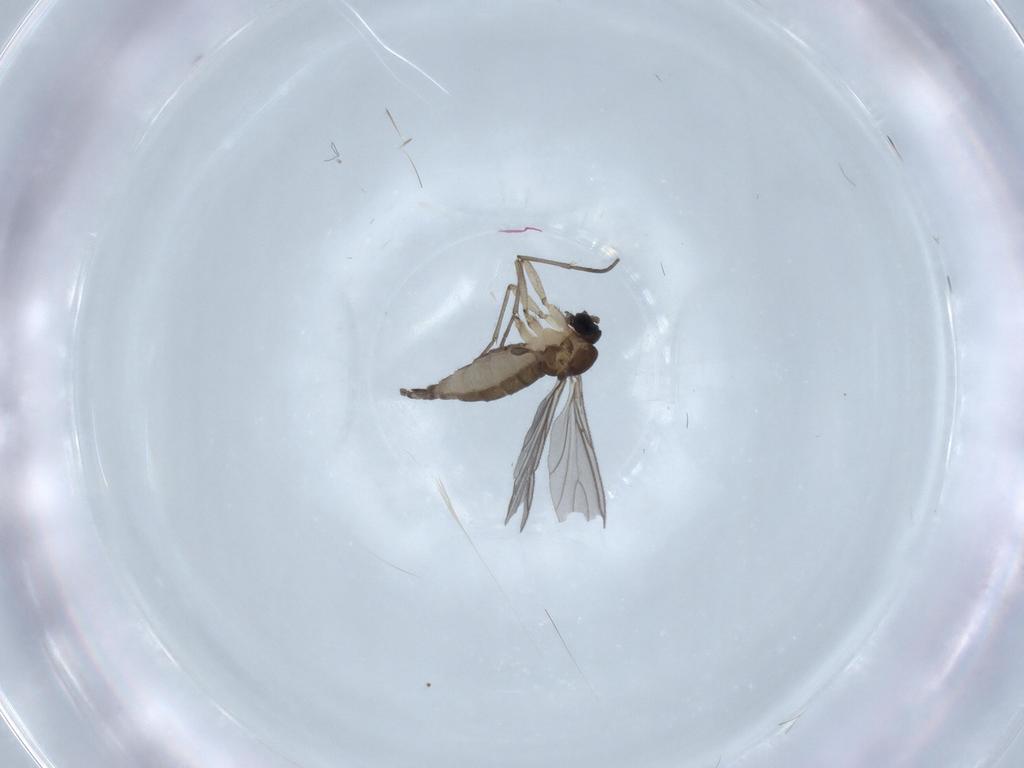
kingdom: Animalia
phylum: Arthropoda
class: Insecta
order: Diptera
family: Sciaridae
